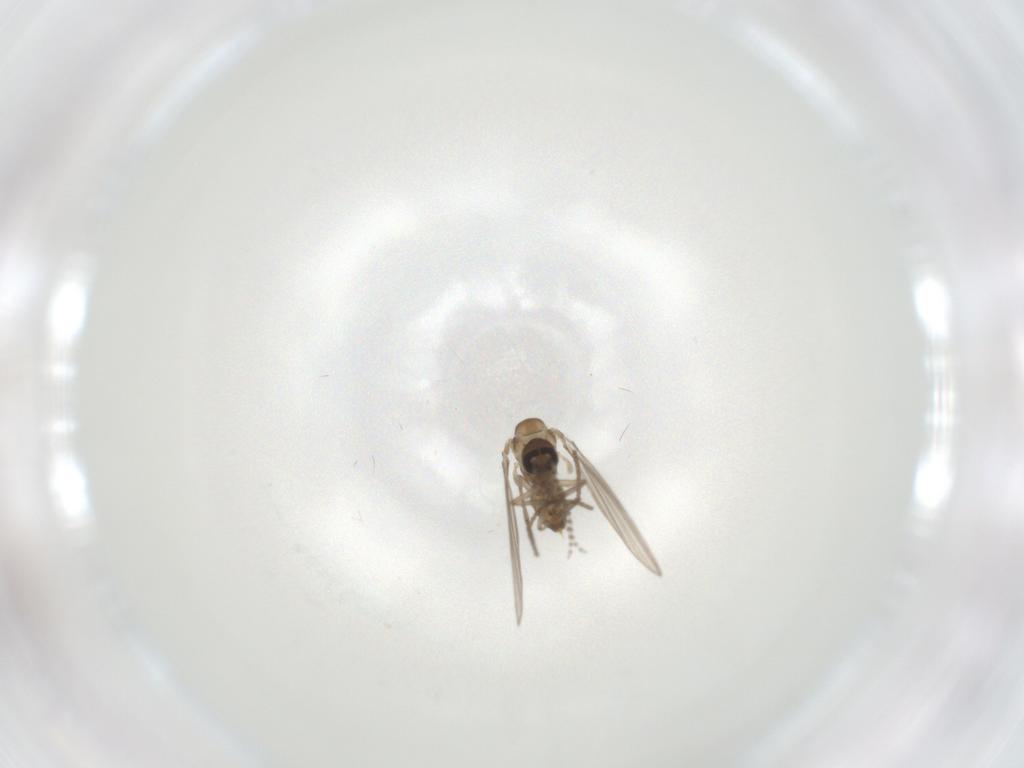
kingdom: Animalia
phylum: Arthropoda
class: Insecta
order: Diptera
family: Psychodidae
